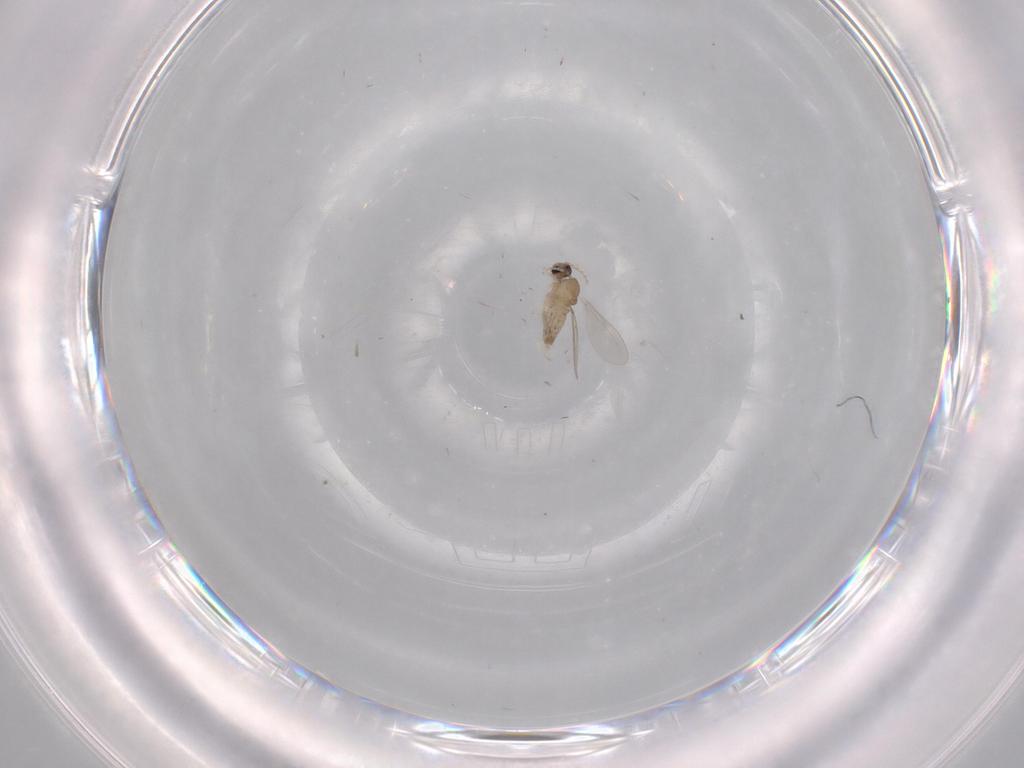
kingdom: Animalia
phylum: Arthropoda
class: Insecta
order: Diptera
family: Cecidomyiidae
